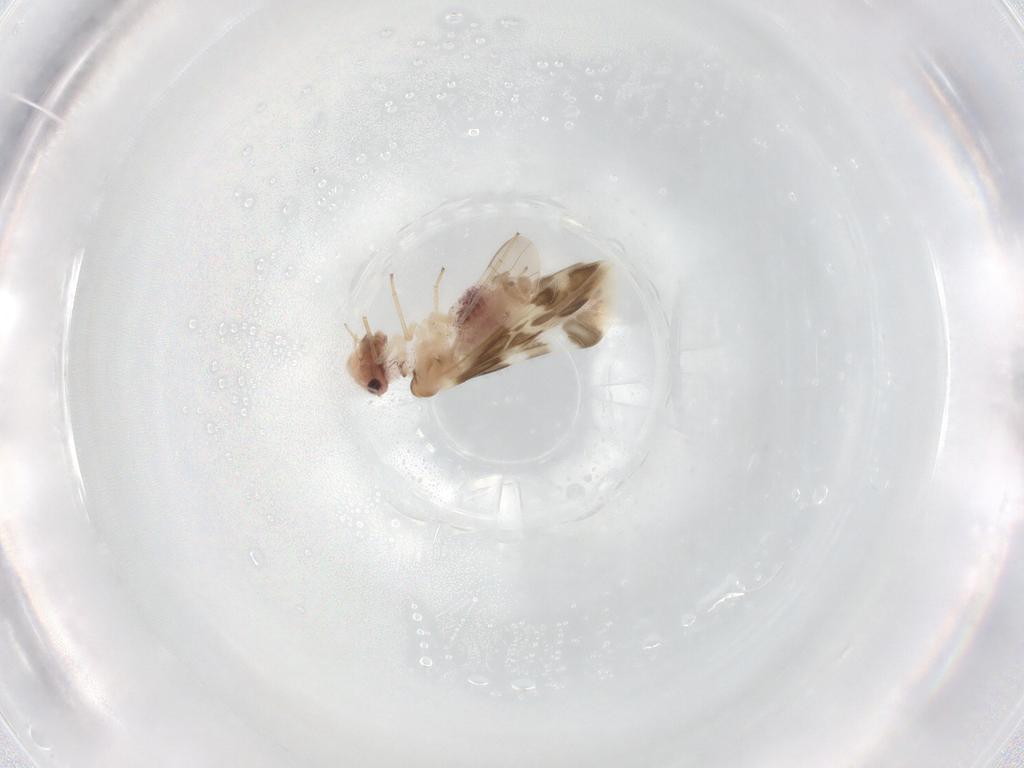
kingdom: Animalia
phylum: Arthropoda
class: Insecta
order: Psocodea
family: Caeciliusidae
